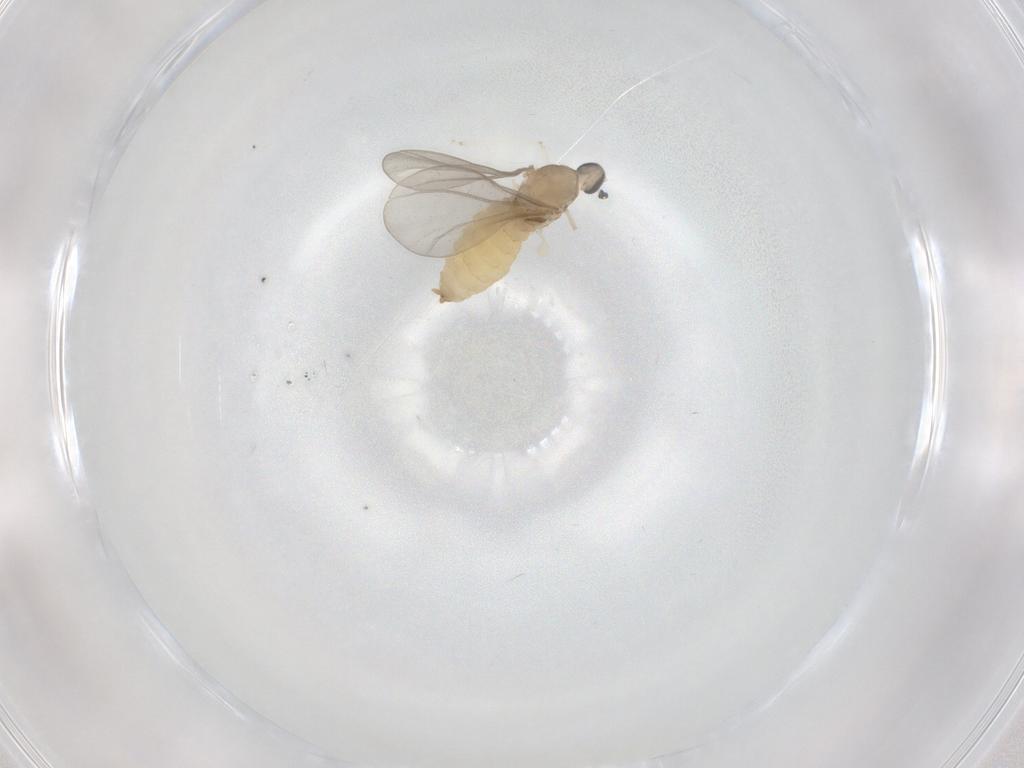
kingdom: Animalia
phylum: Arthropoda
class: Insecta
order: Diptera
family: Cecidomyiidae
